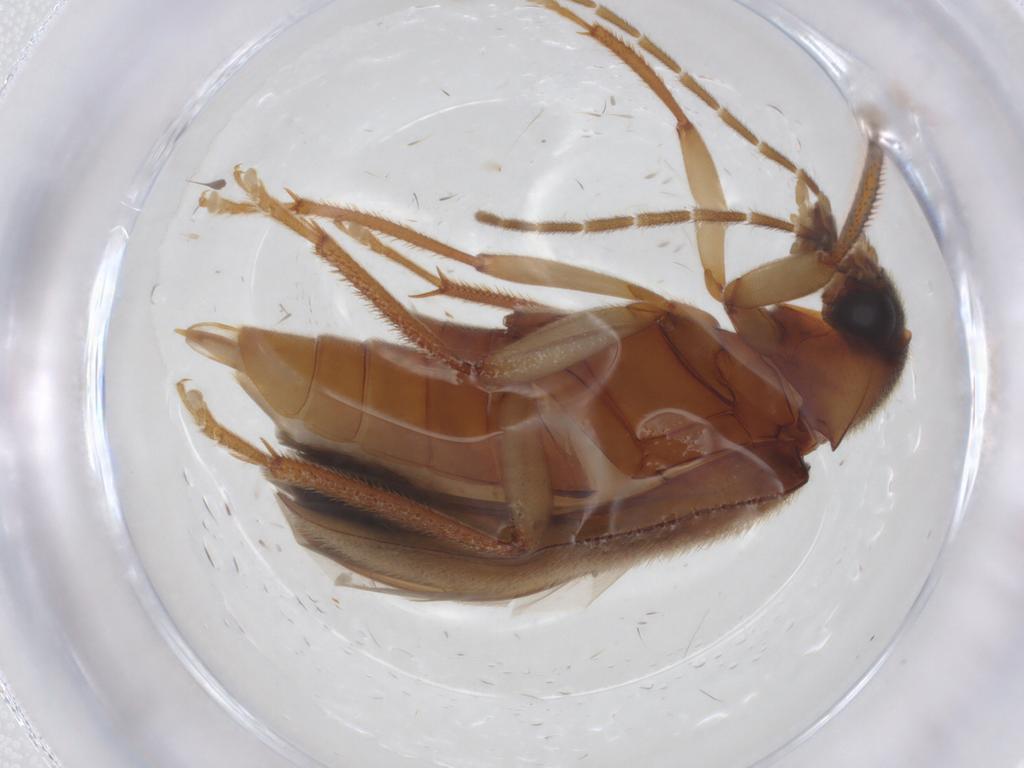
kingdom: Animalia
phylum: Arthropoda
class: Insecta
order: Coleoptera
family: Ptilodactylidae
